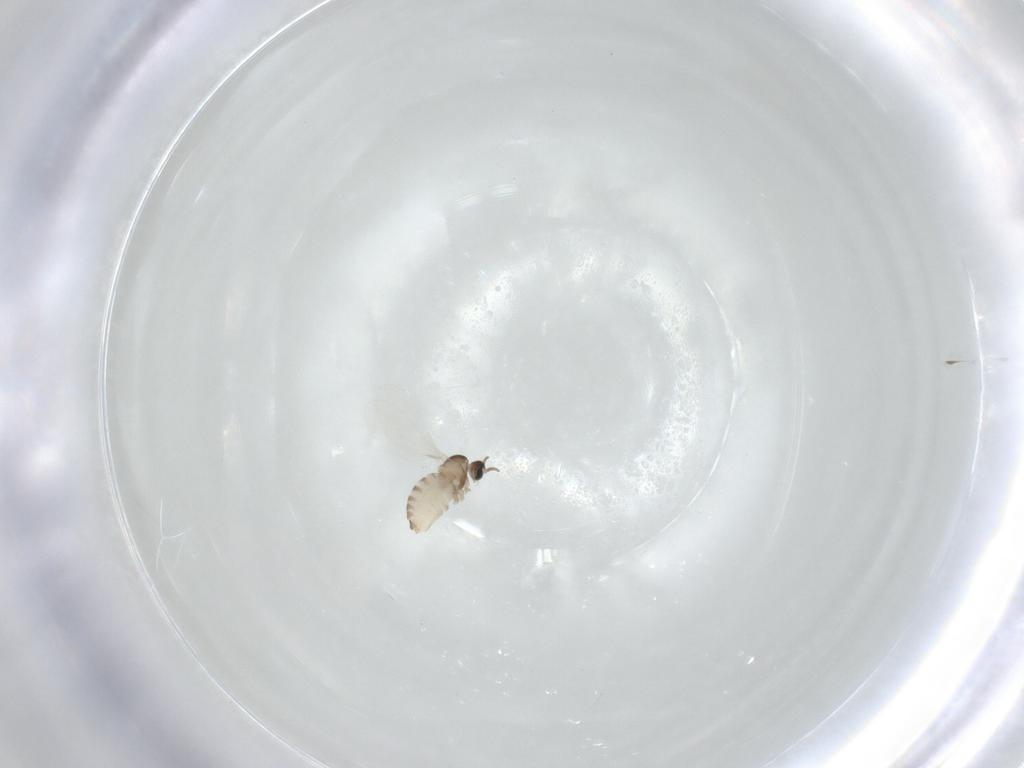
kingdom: Animalia
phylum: Arthropoda
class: Insecta
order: Diptera
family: Cecidomyiidae
